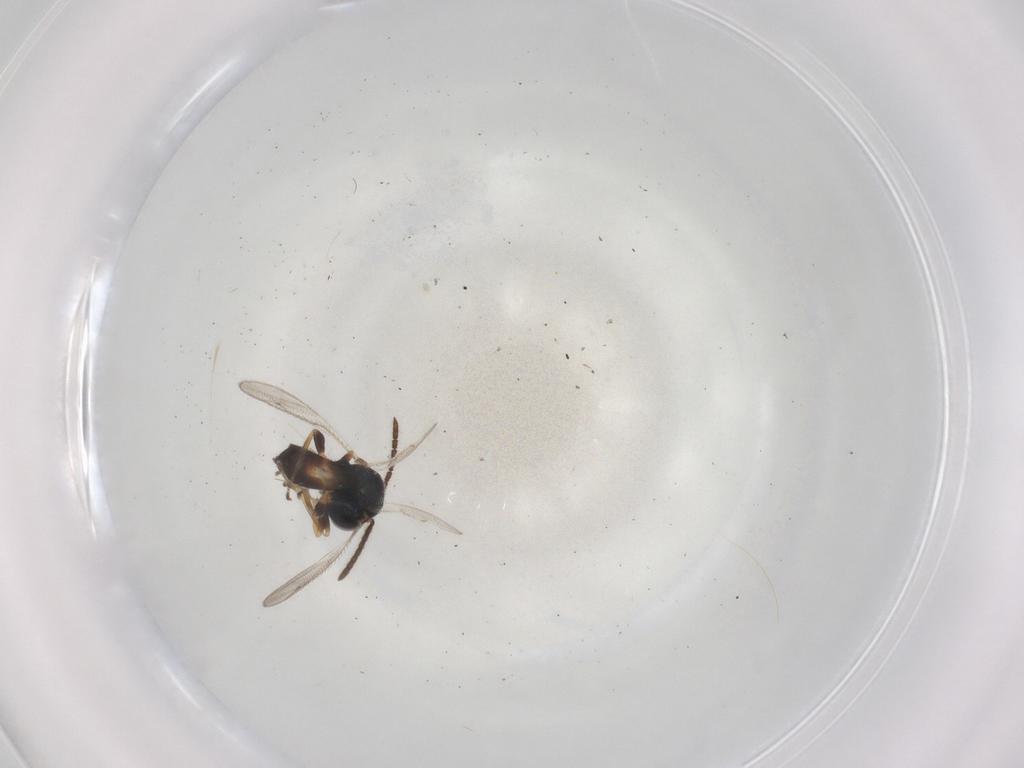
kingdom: Animalia
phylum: Arthropoda
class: Insecta
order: Hymenoptera
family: Pteromalidae
